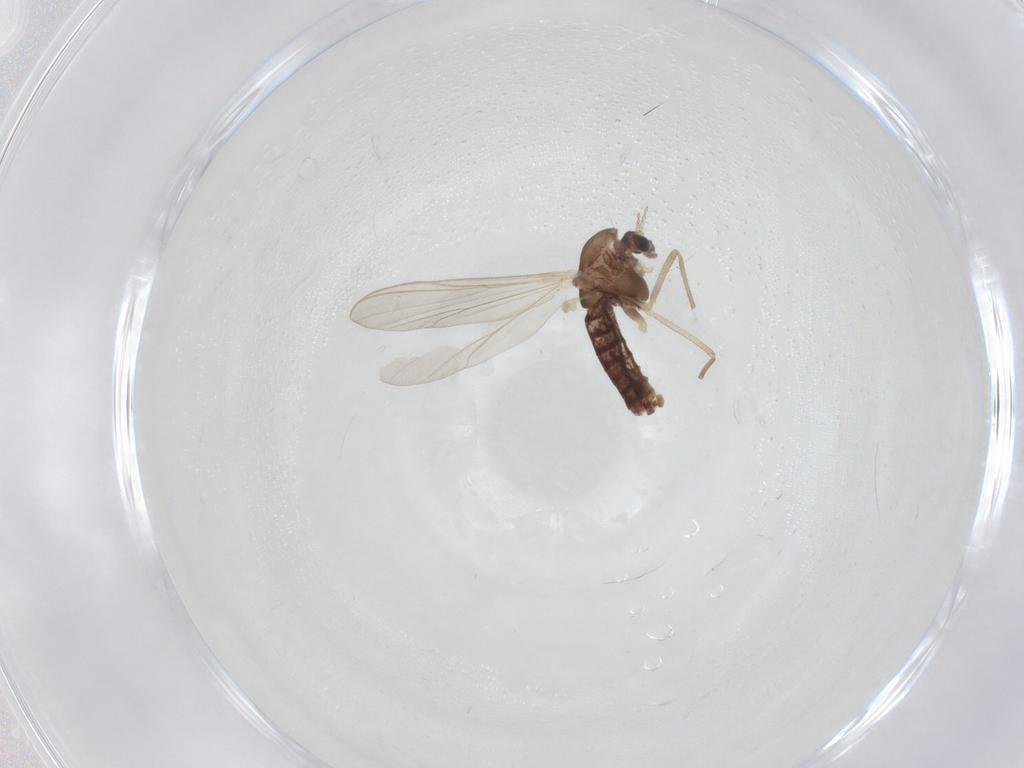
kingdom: Animalia
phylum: Arthropoda
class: Insecta
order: Diptera
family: Chironomidae
